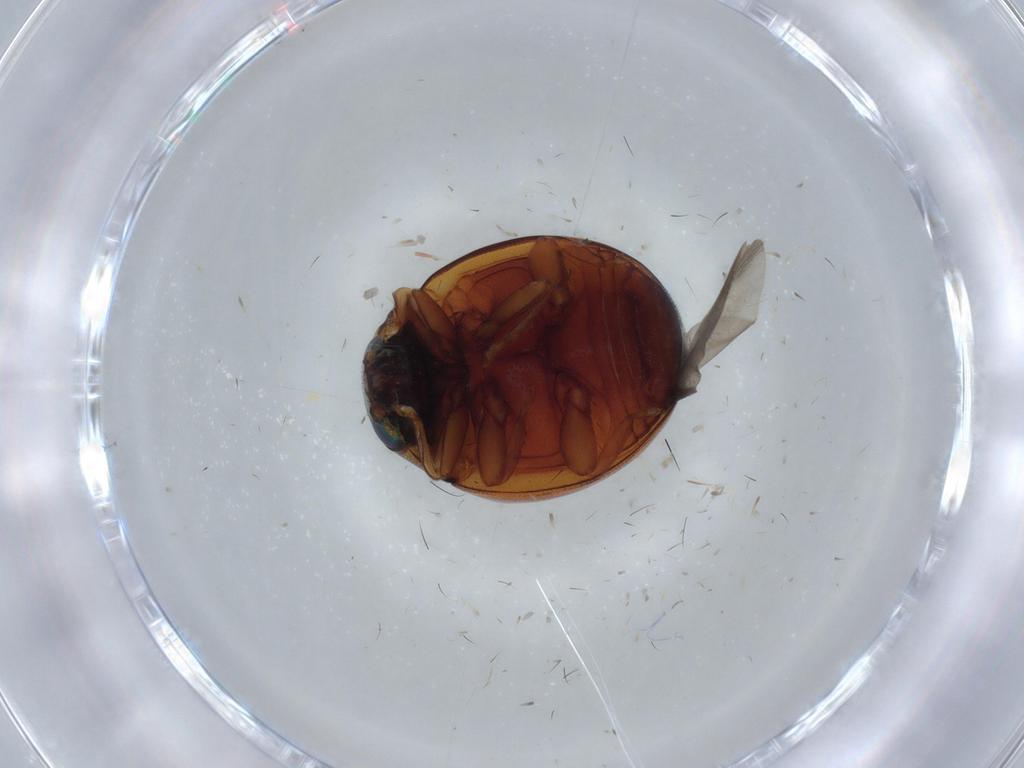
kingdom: Animalia
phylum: Arthropoda
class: Insecta
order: Coleoptera
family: Coccinellidae
